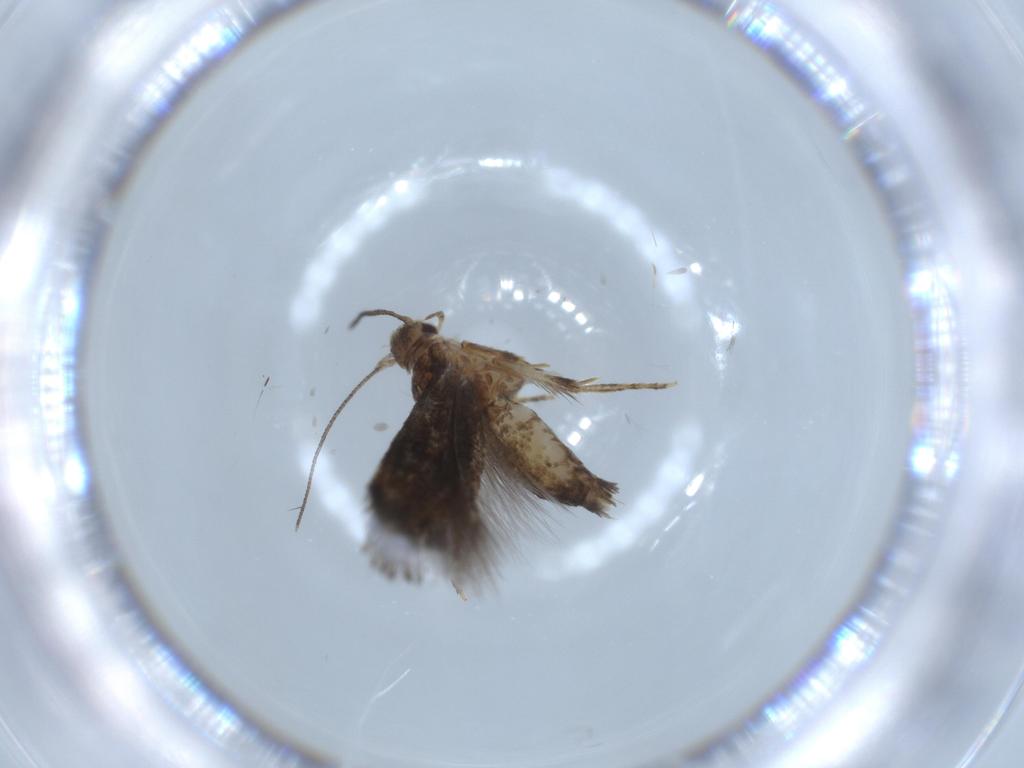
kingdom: Animalia
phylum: Arthropoda
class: Insecta
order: Lepidoptera
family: Gelechiidae
